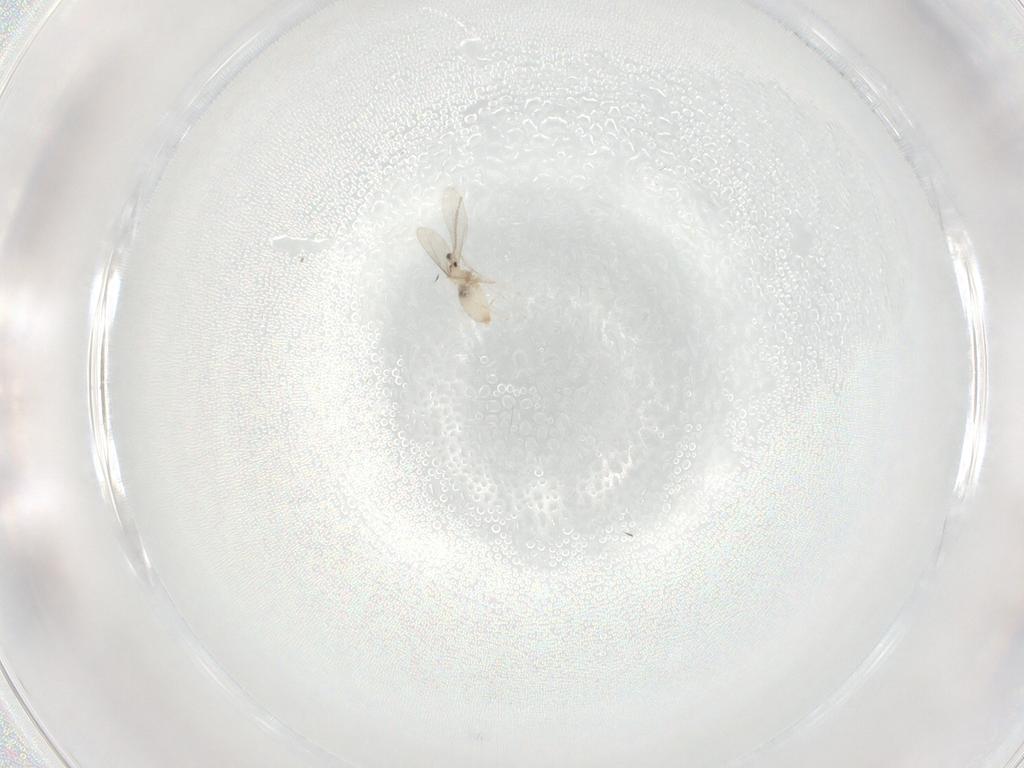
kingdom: Animalia
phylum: Arthropoda
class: Insecta
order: Diptera
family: Cecidomyiidae
